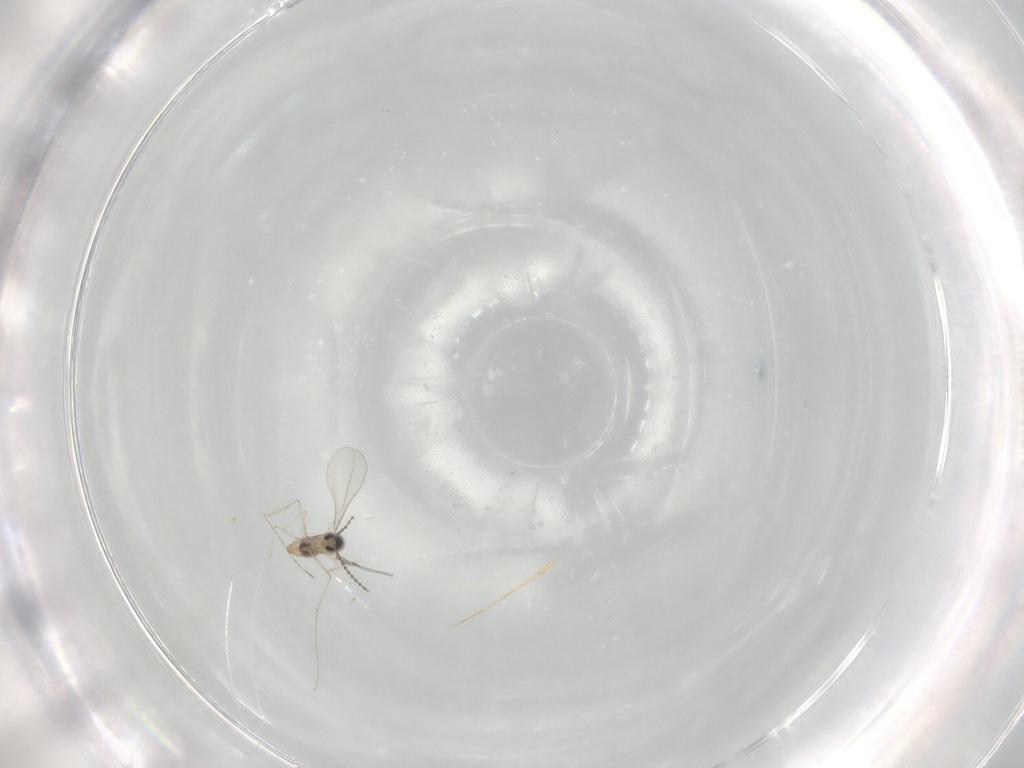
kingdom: Animalia
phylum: Arthropoda
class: Insecta
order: Diptera
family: Cecidomyiidae
